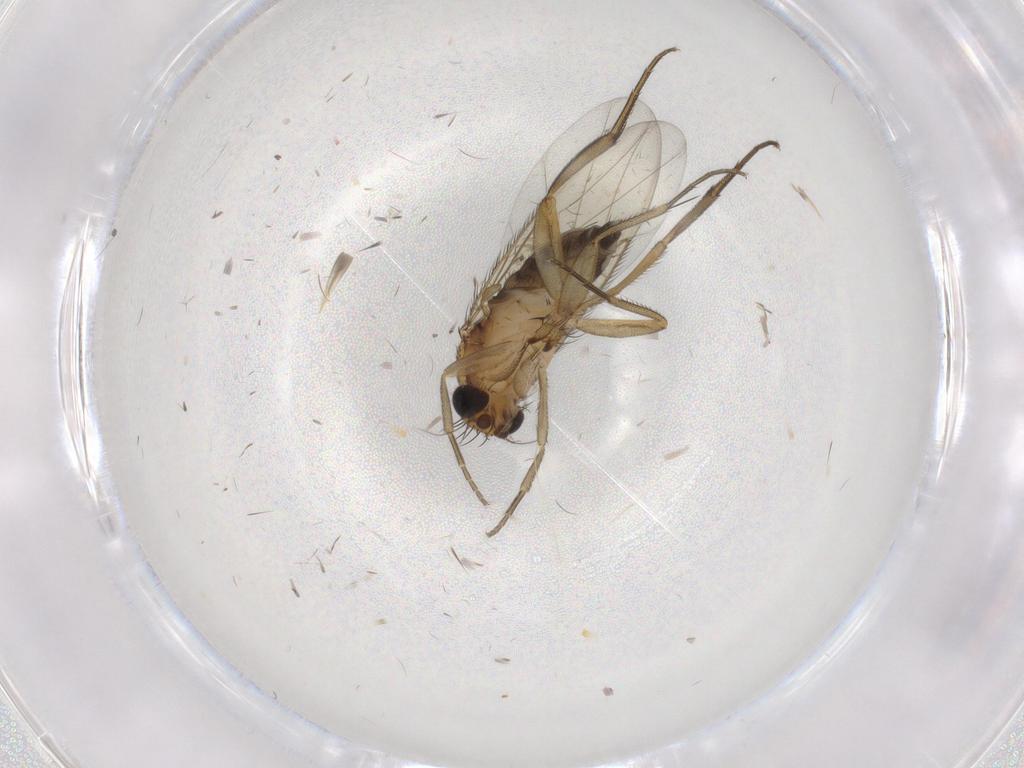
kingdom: Animalia
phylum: Arthropoda
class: Insecta
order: Diptera
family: Phoridae
